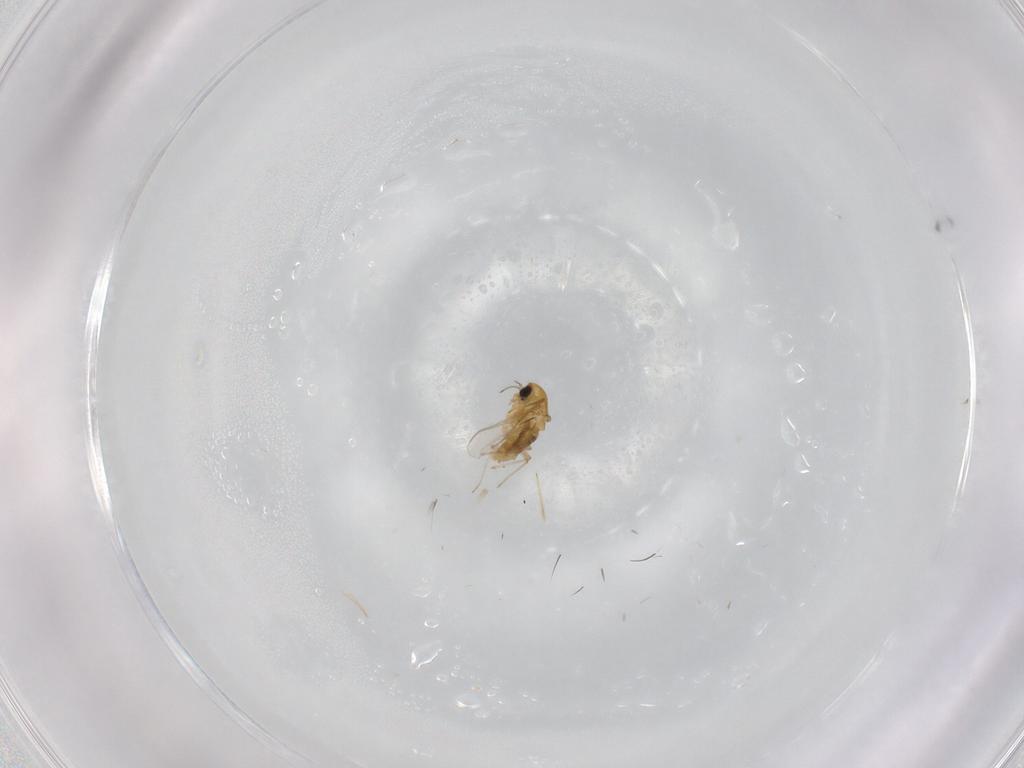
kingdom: Animalia
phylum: Arthropoda
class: Insecta
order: Diptera
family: Chironomidae
